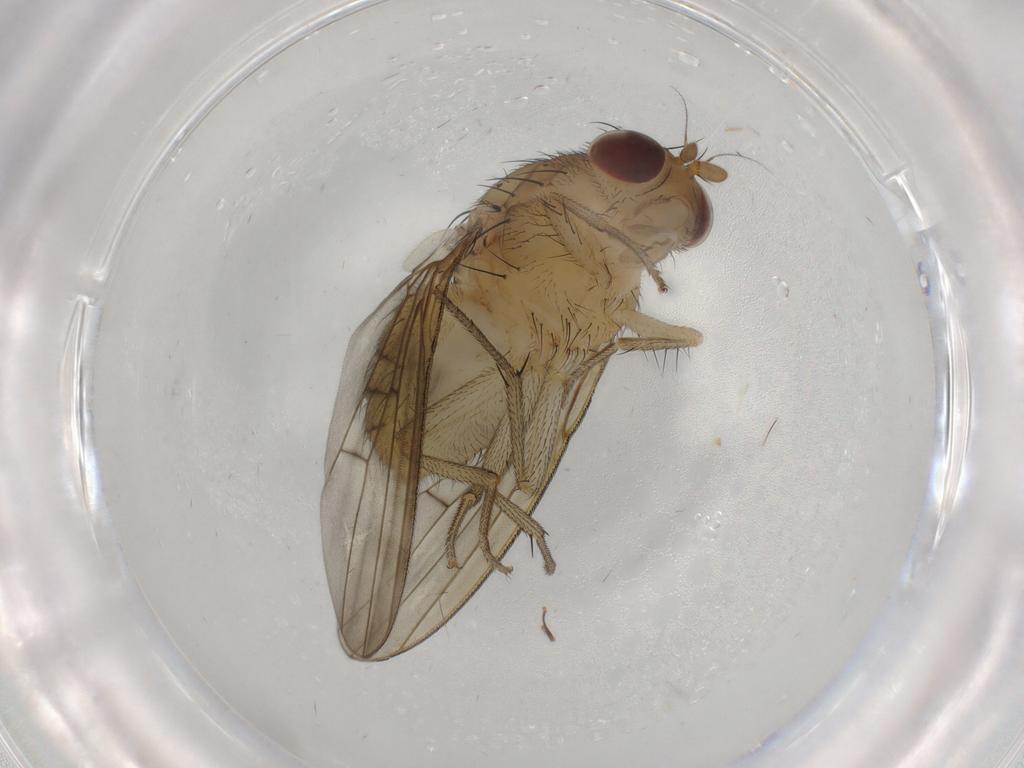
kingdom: Animalia
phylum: Arthropoda
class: Insecta
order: Diptera
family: Tabanidae
